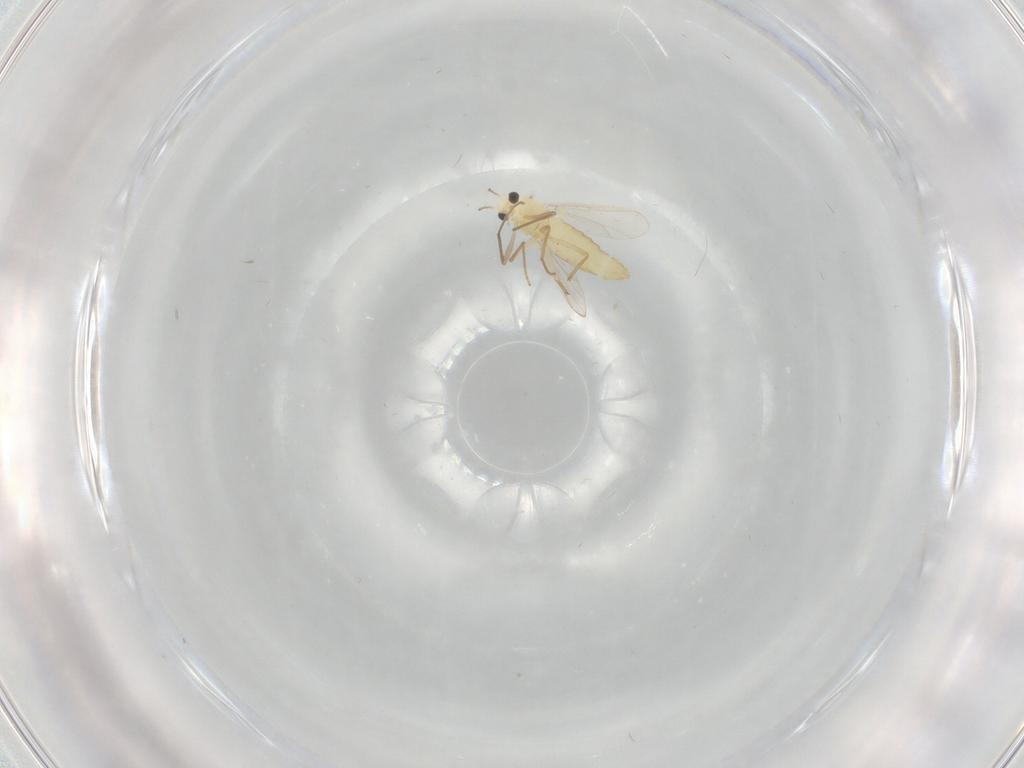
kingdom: Animalia
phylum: Arthropoda
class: Insecta
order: Diptera
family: Chironomidae
